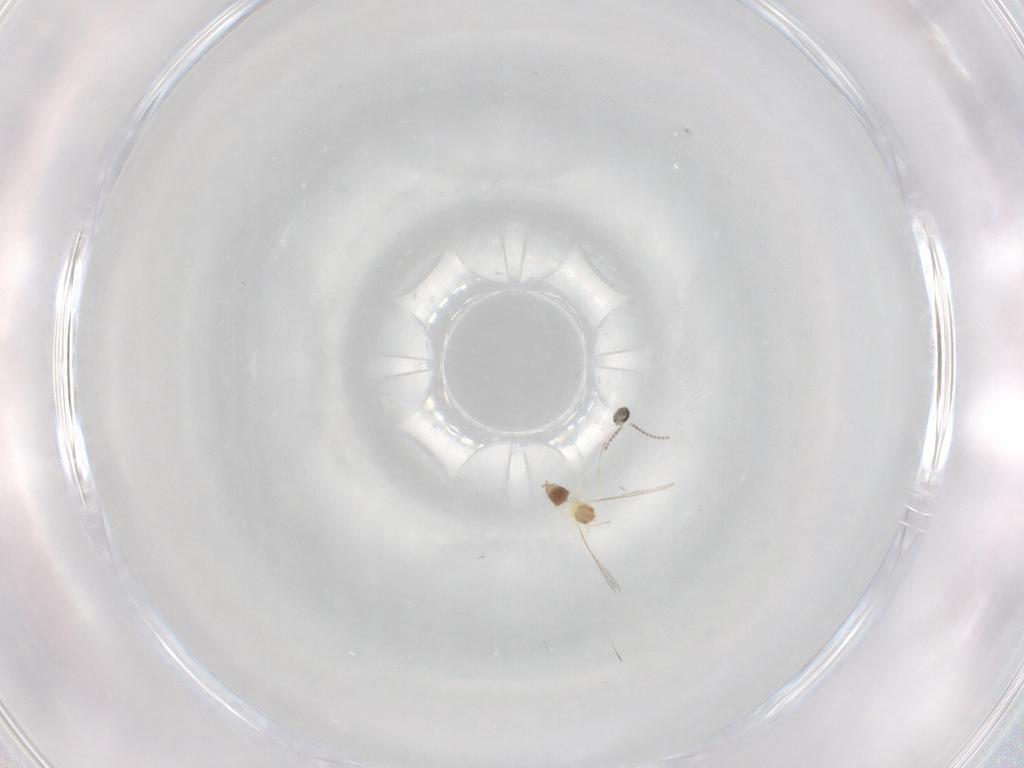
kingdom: Animalia
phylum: Arthropoda
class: Insecta
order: Diptera
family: Cecidomyiidae
